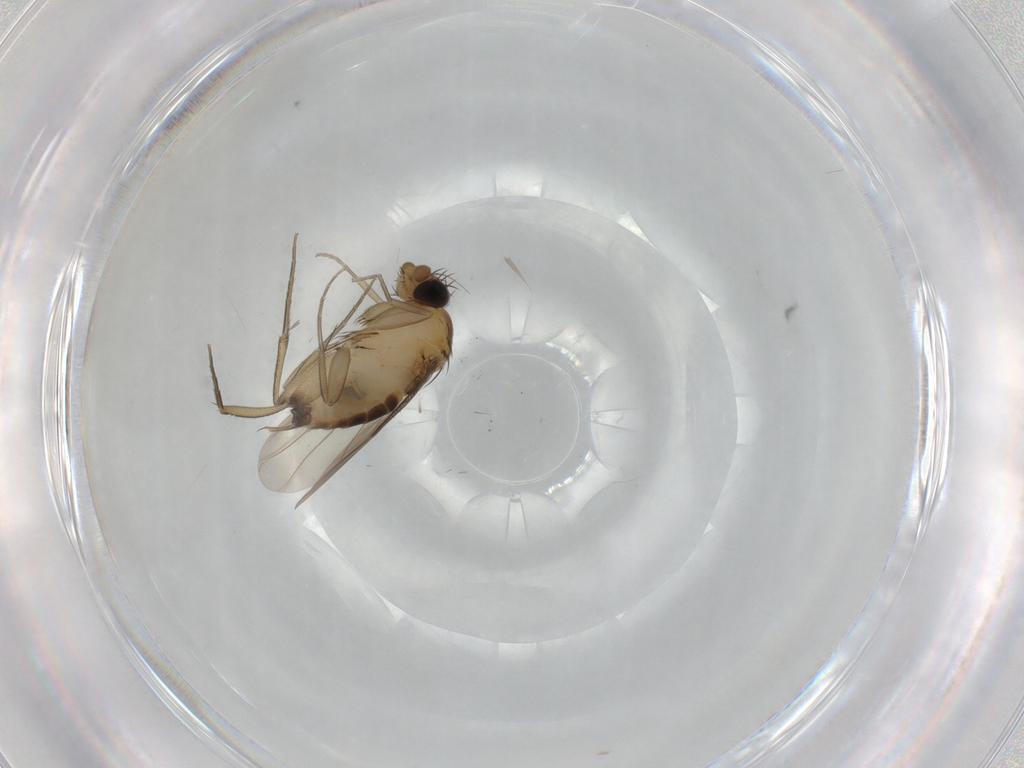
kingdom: Animalia
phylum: Arthropoda
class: Insecta
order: Diptera
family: Phoridae
